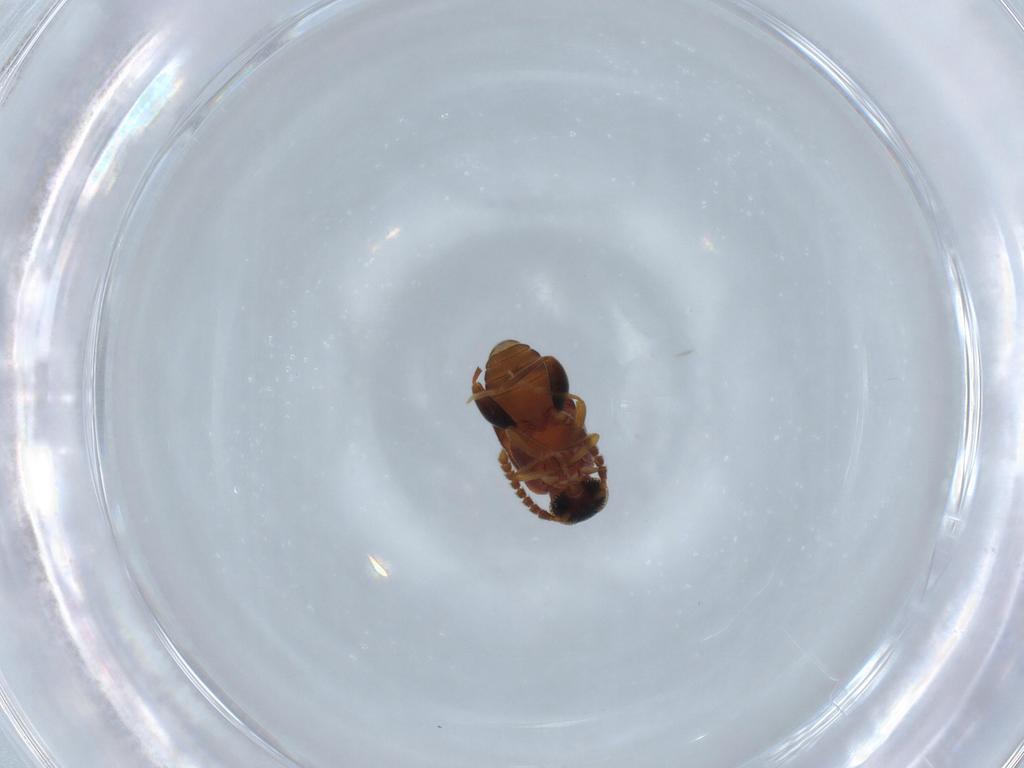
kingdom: Animalia
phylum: Arthropoda
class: Insecta
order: Coleoptera
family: Aderidae
